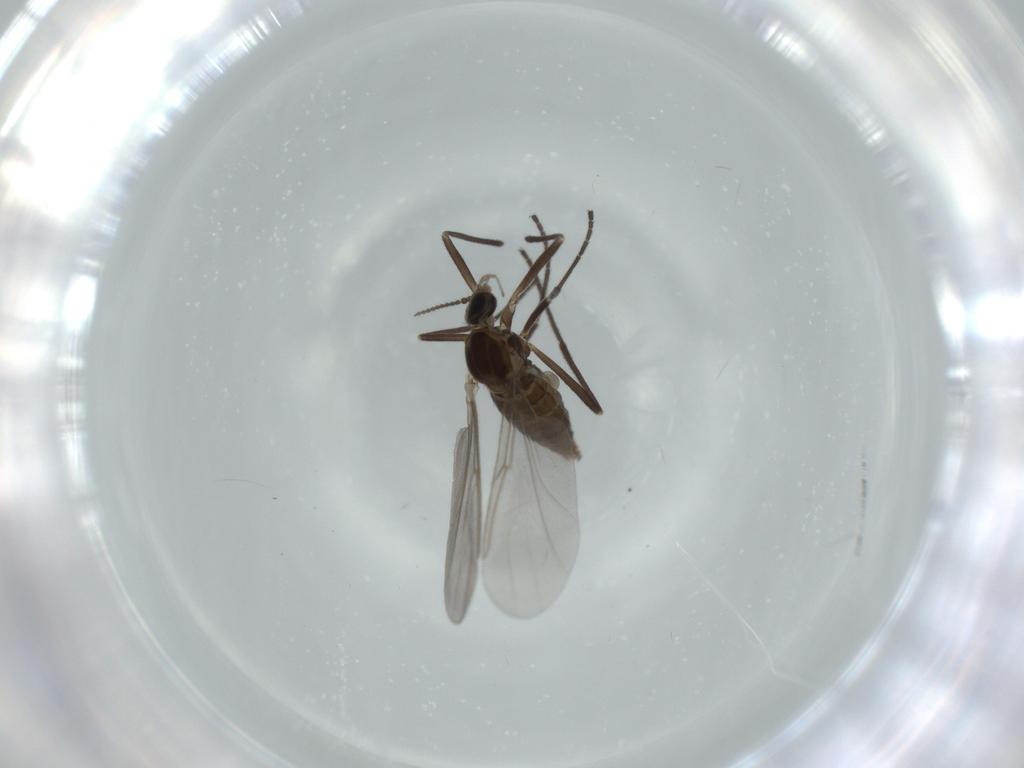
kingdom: Animalia
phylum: Arthropoda
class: Insecta
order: Diptera
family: Cecidomyiidae
